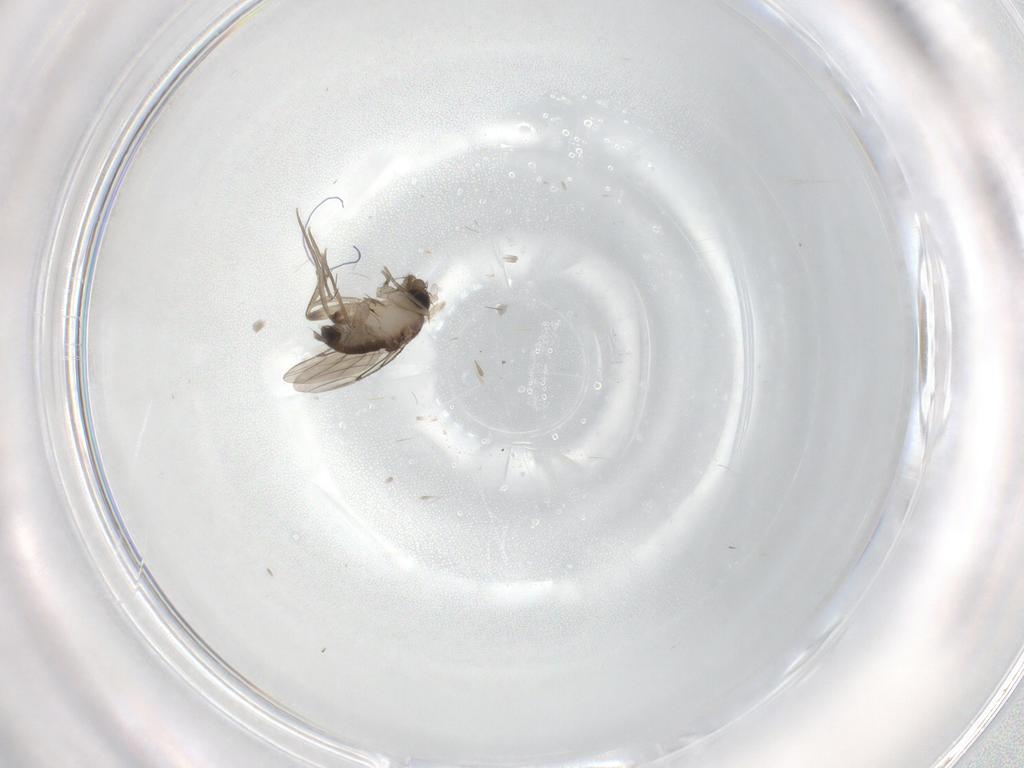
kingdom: Animalia
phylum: Arthropoda
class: Insecta
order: Diptera
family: Phoridae
